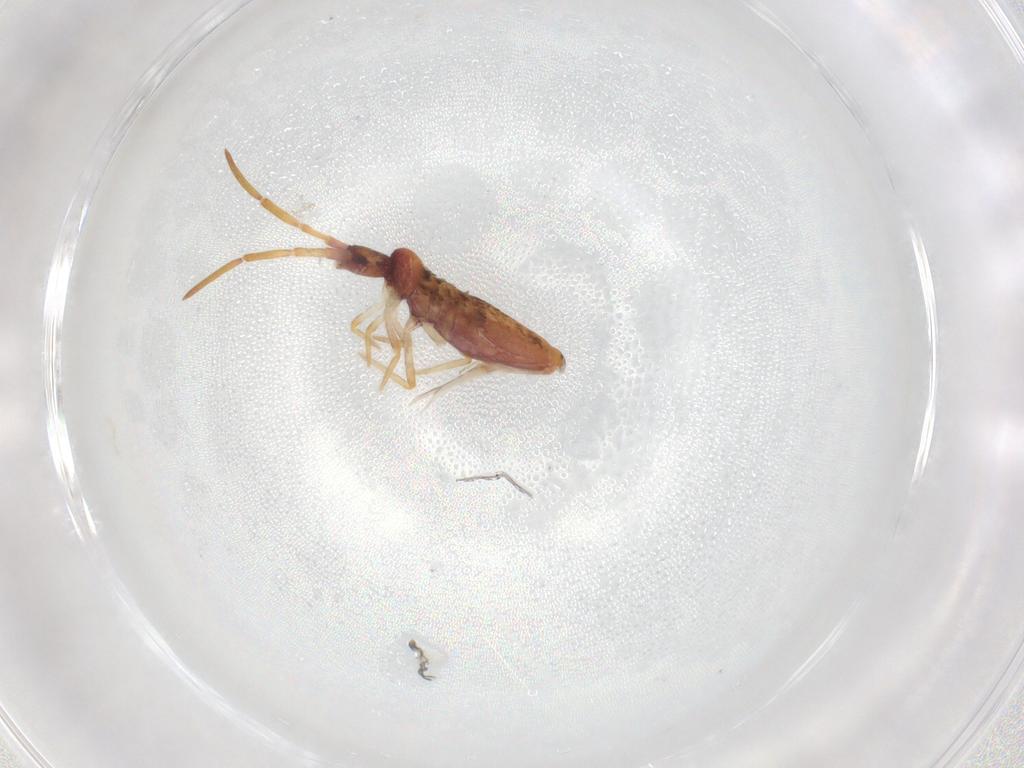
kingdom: Animalia
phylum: Arthropoda
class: Collembola
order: Entomobryomorpha
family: Entomobryidae
